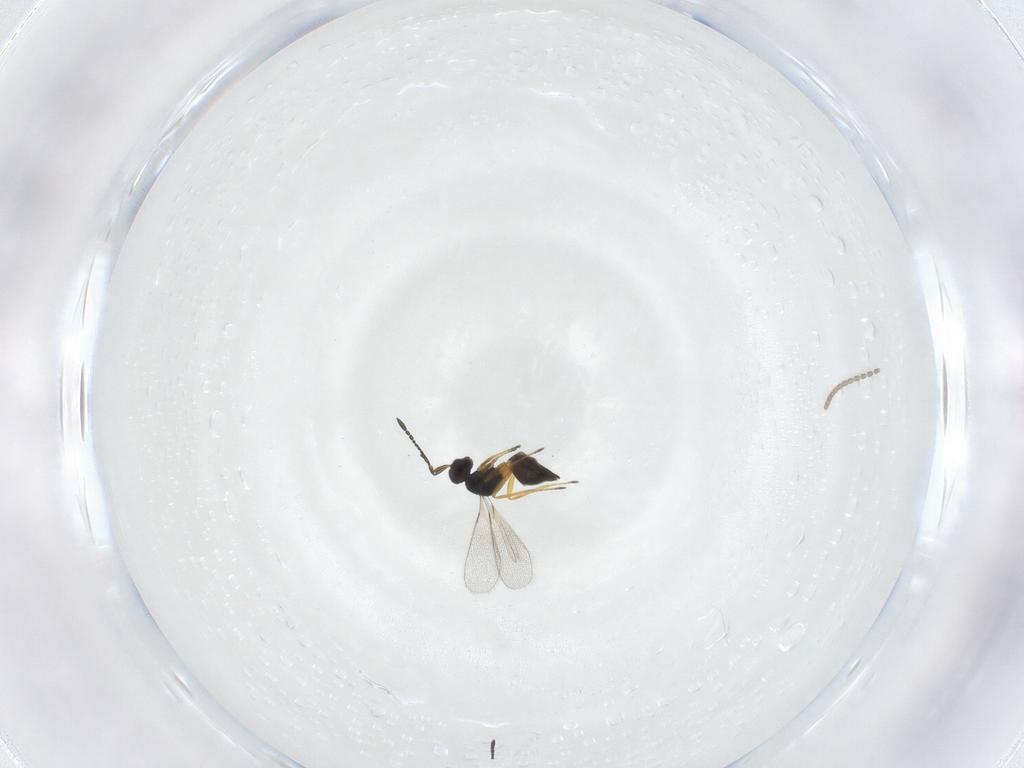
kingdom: Animalia
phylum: Arthropoda
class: Insecta
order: Hymenoptera
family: Mymaridae
